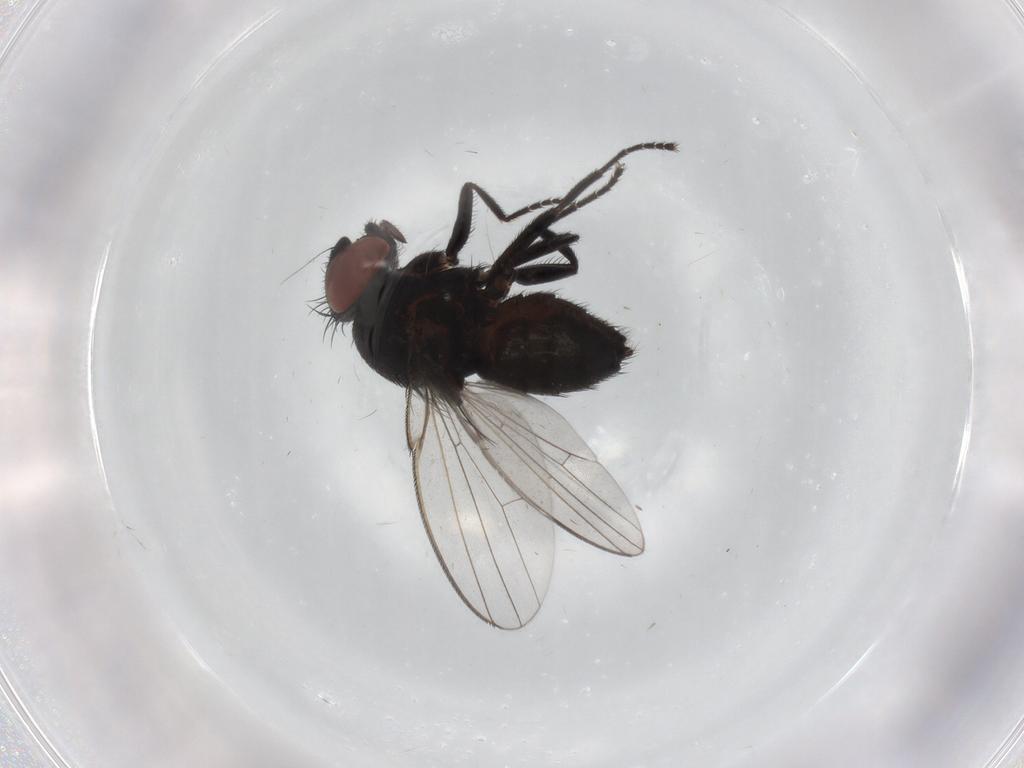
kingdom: Animalia
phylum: Arthropoda
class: Insecta
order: Diptera
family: Milichiidae
